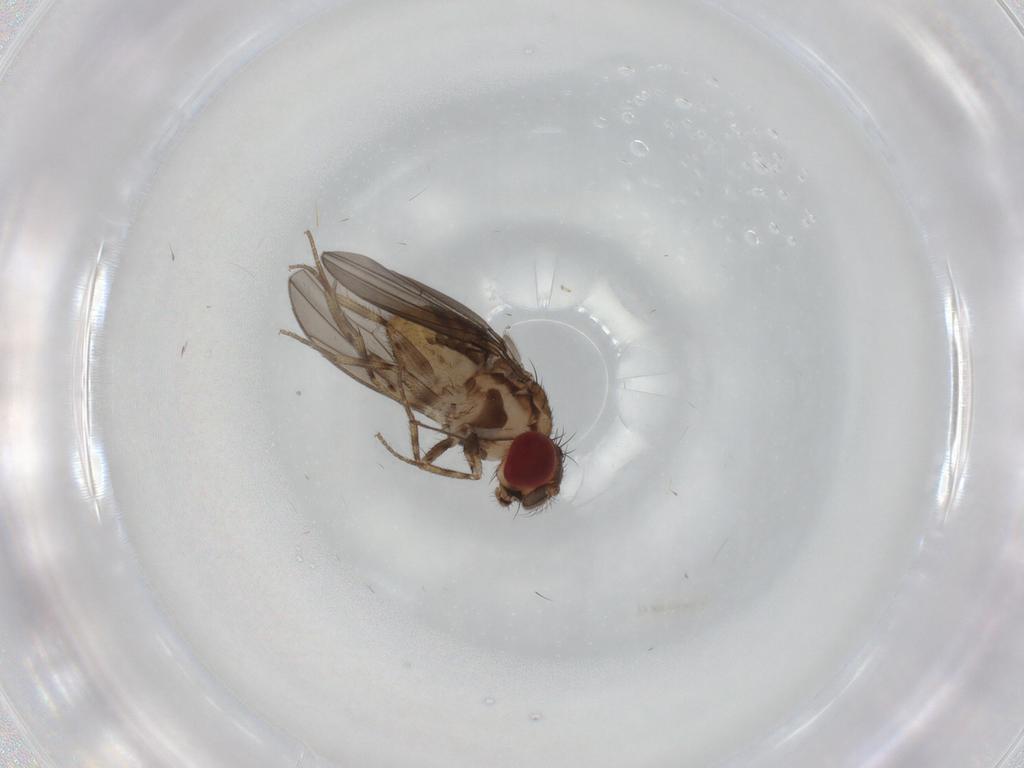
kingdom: Animalia
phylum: Arthropoda
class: Insecta
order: Diptera
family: Drosophilidae
